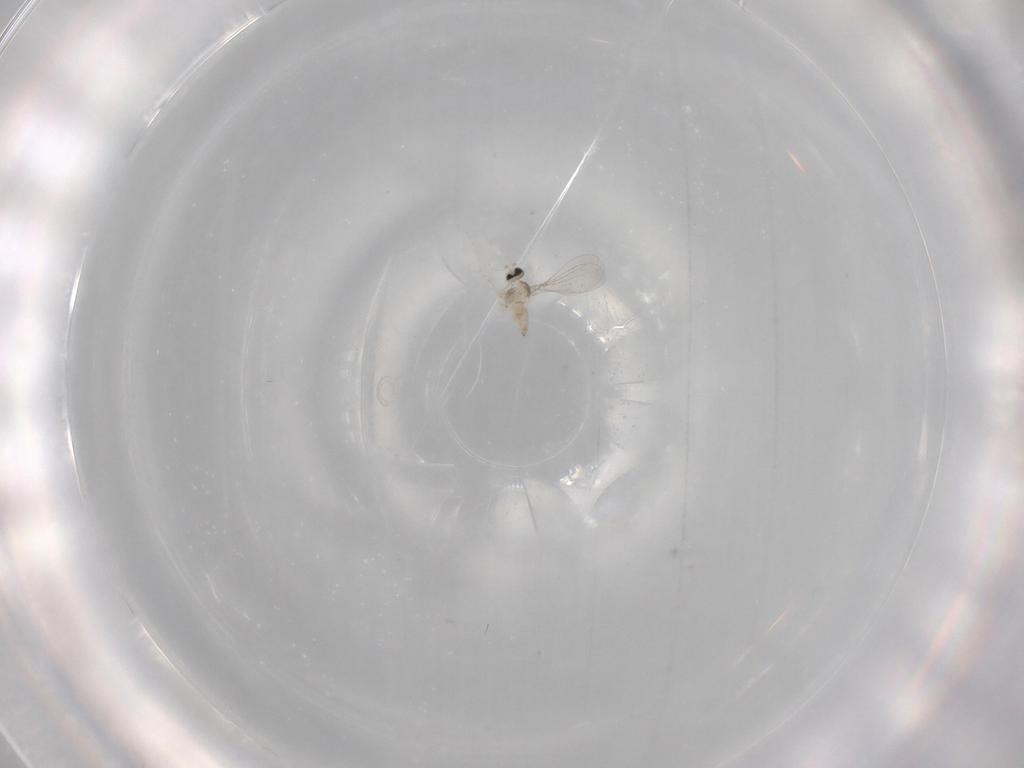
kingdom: Animalia
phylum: Arthropoda
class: Insecta
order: Diptera
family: Cecidomyiidae
